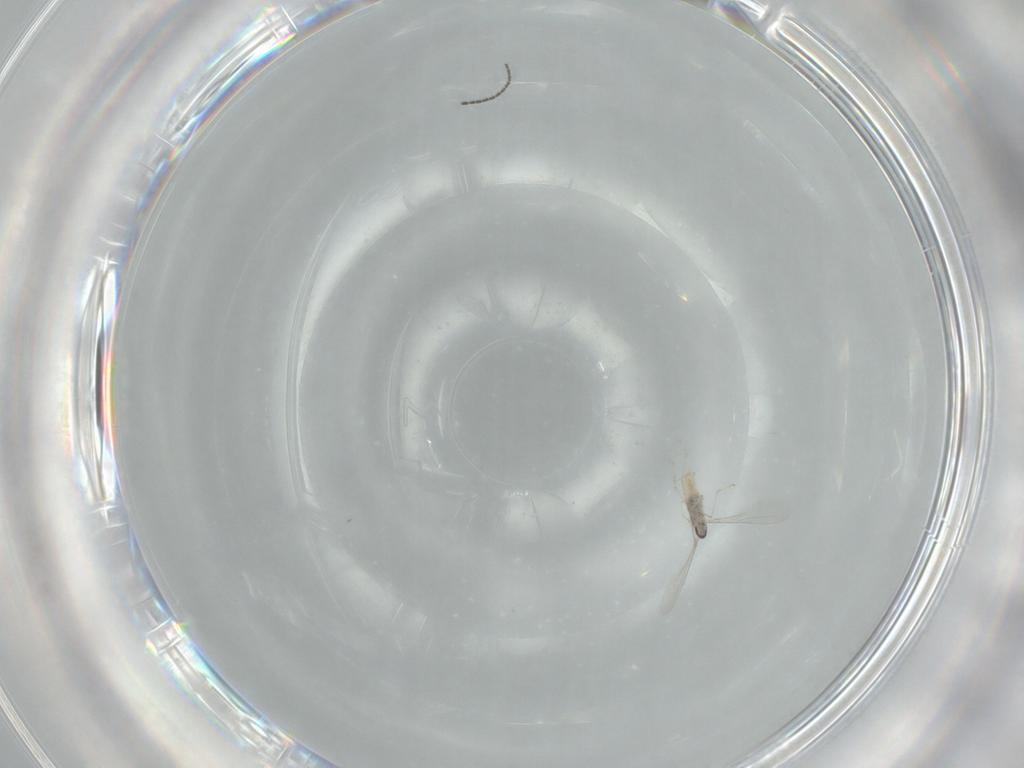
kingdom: Animalia
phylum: Arthropoda
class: Insecta
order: Diptera
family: Cecidomyiidae
